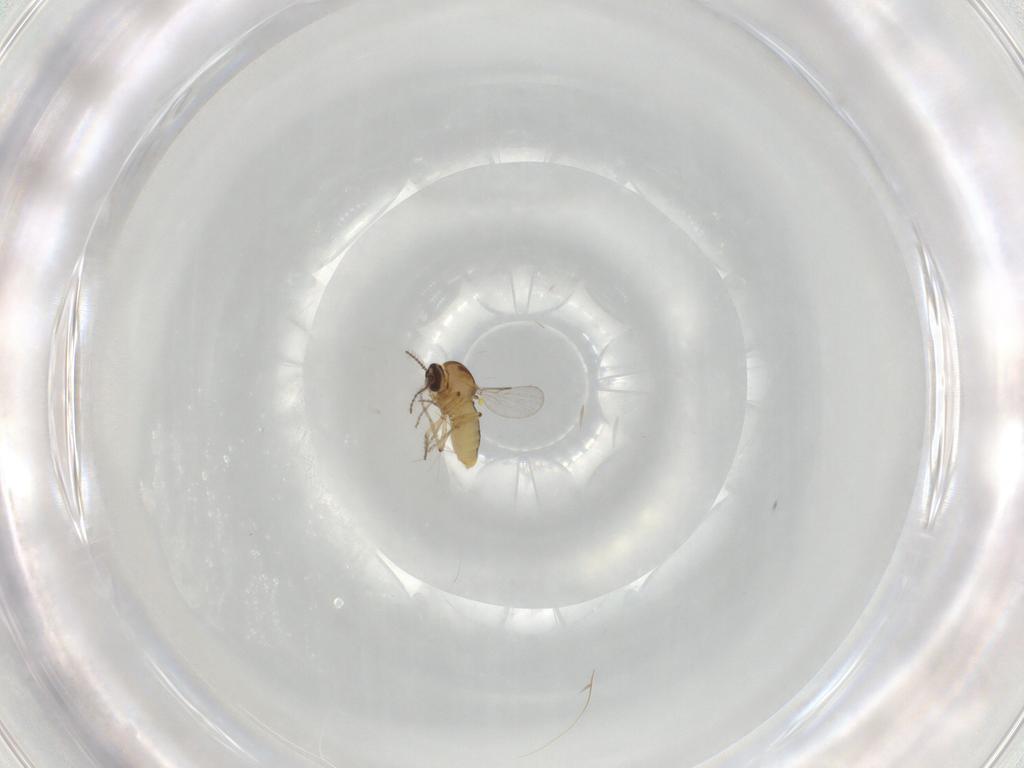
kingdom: Animalia
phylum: Arthropoda
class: Insecta
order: Diptera
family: Ceratopogonidae
